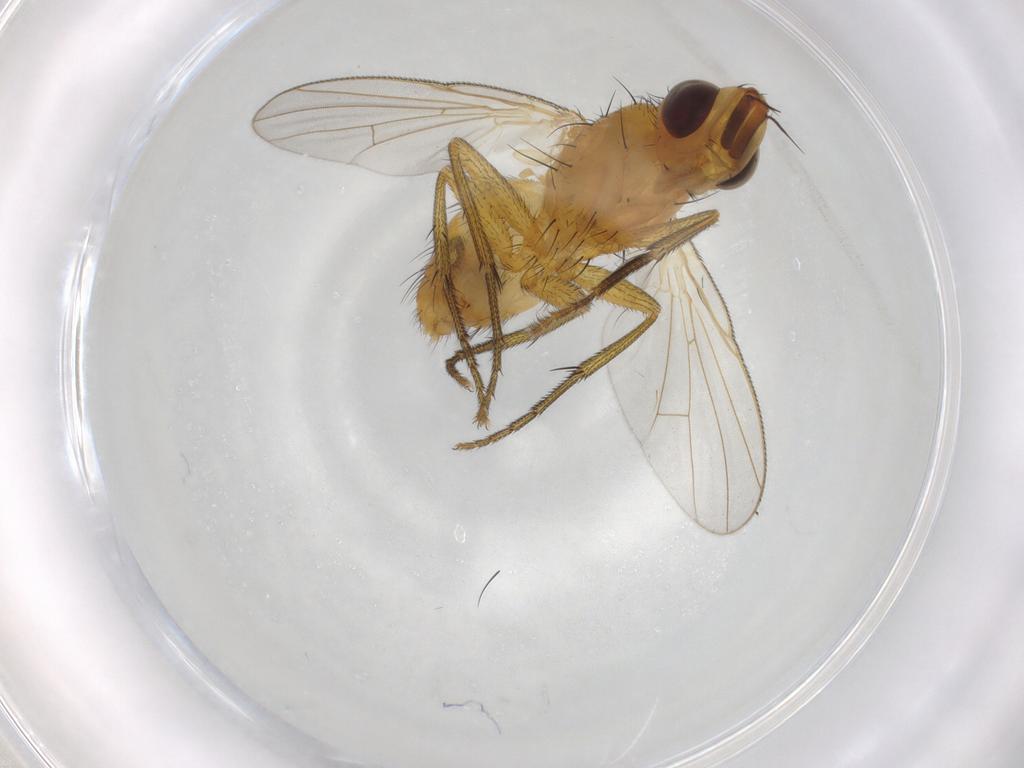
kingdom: Animalia
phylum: Arthropoda
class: Insecta
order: Diptera
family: Muscidae
